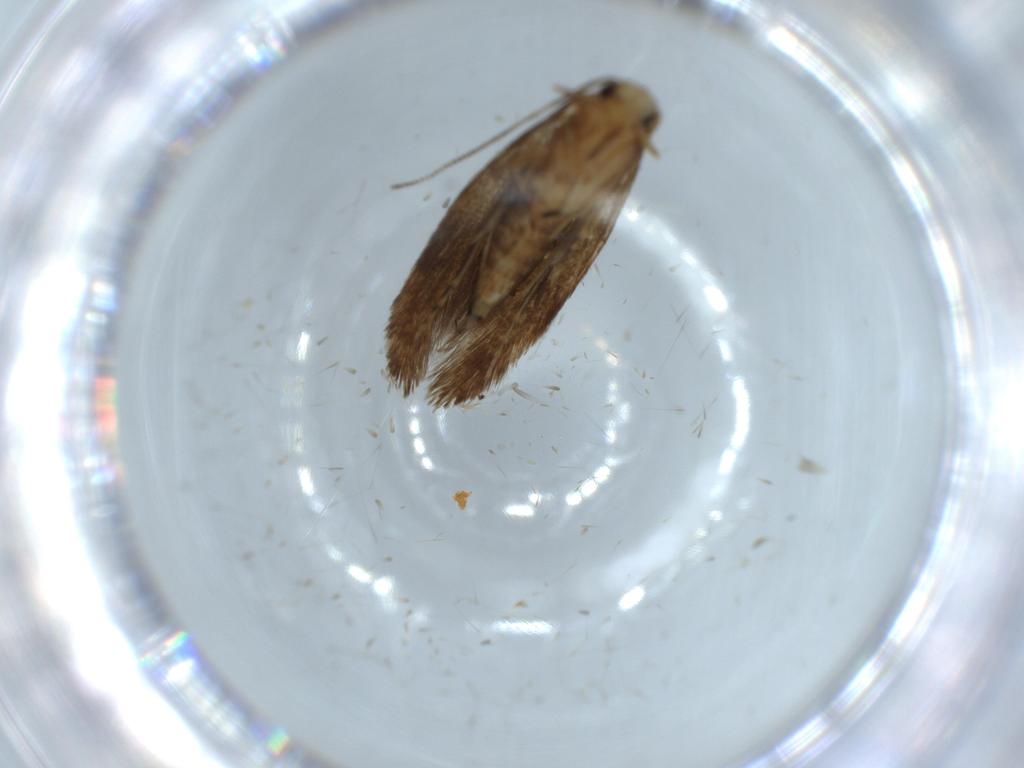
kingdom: Animalia
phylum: Arthropoda
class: Insecta
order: Lepidoptera
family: Tineidae
